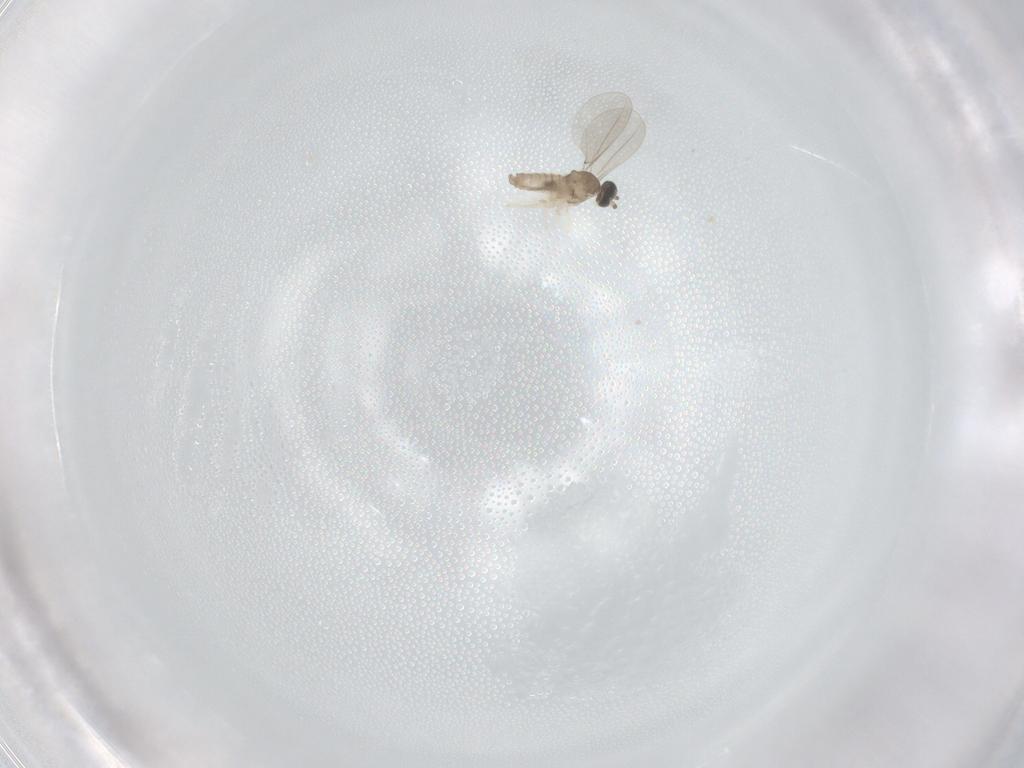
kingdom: Animalia
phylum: Arthropoda
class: Insecta
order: Diptera
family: Cecidomyiidae
